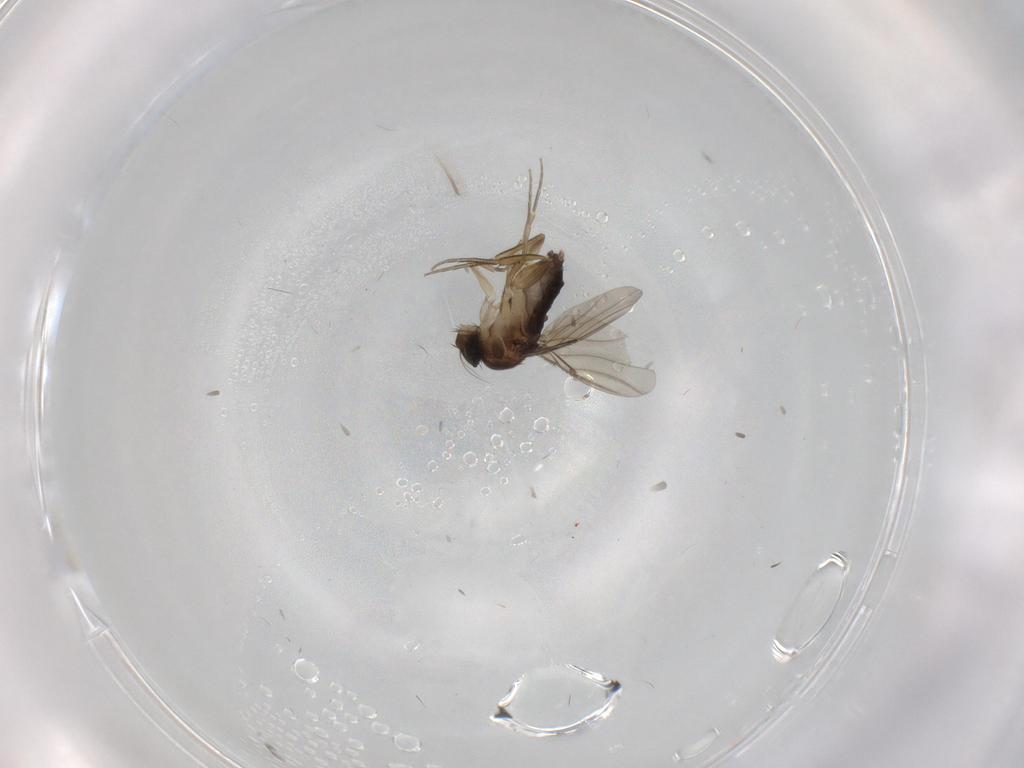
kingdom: Animalia
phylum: Arthropoda
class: Insecta
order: Diptera
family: Phoridae
